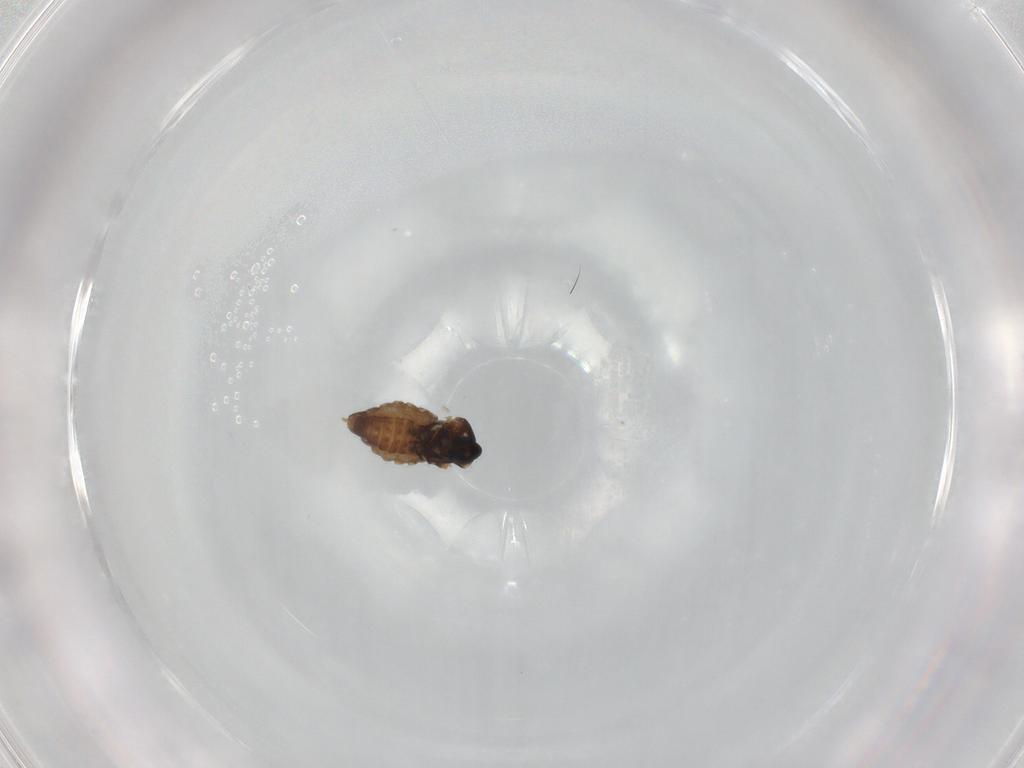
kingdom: Animalia
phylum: Arthropoda
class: Insecta
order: Diptera
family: Cecidomyiidae
